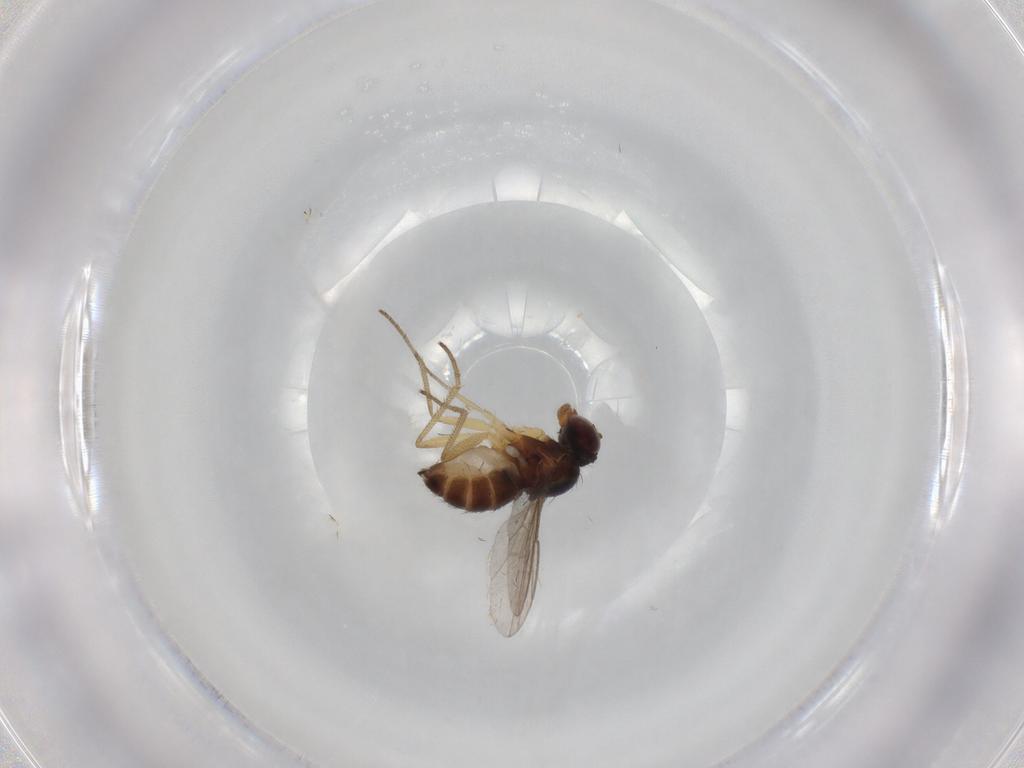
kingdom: Animalia
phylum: Arthropoda
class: Insecta
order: Diptera
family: Dolichopodidae
